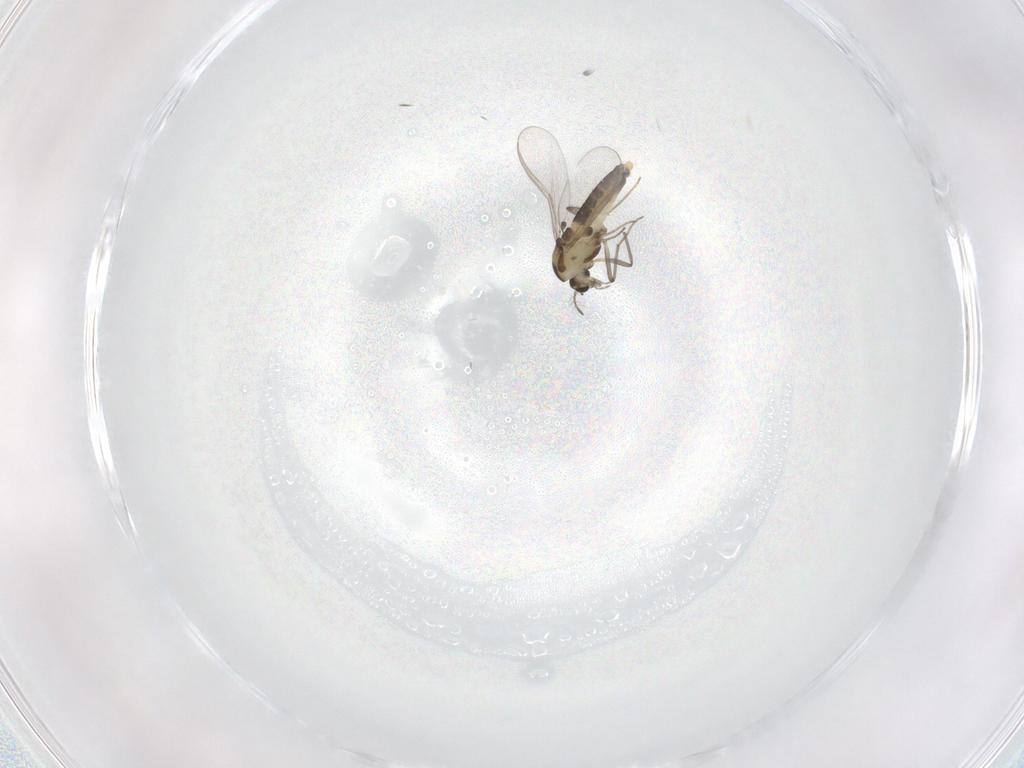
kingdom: Animalia
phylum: Arthropoda
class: Insecta
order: Diptera
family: Chironomidae
